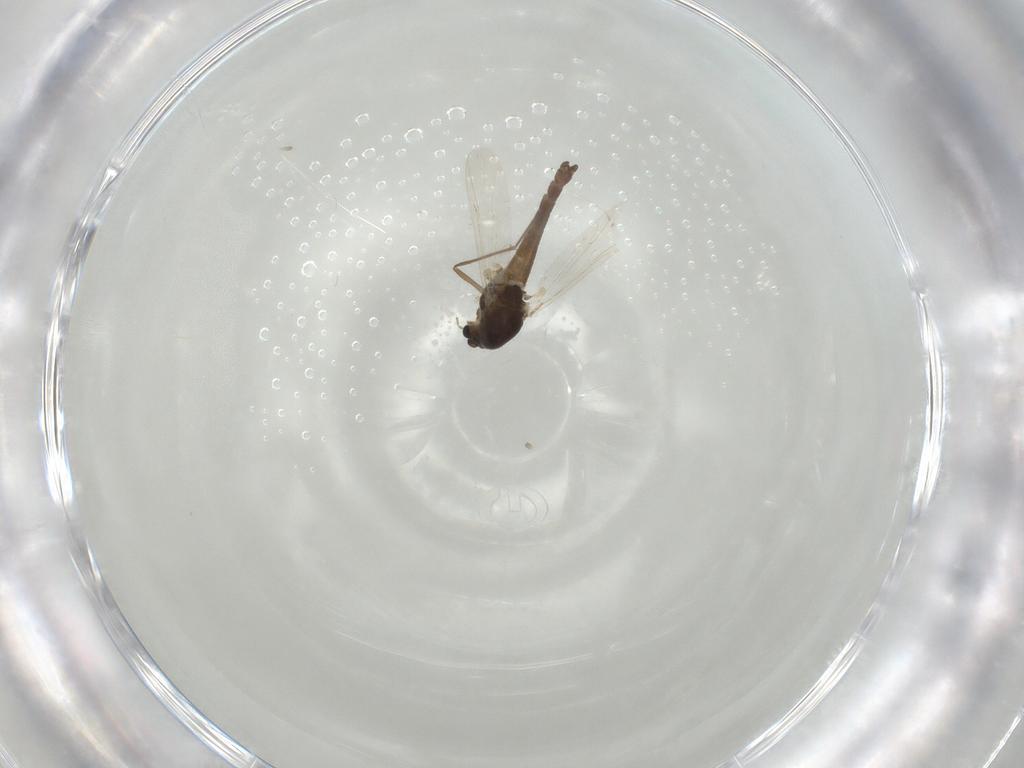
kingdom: Animalia
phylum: Arthropoda
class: Insecta
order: Diptera
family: Chironomidae
